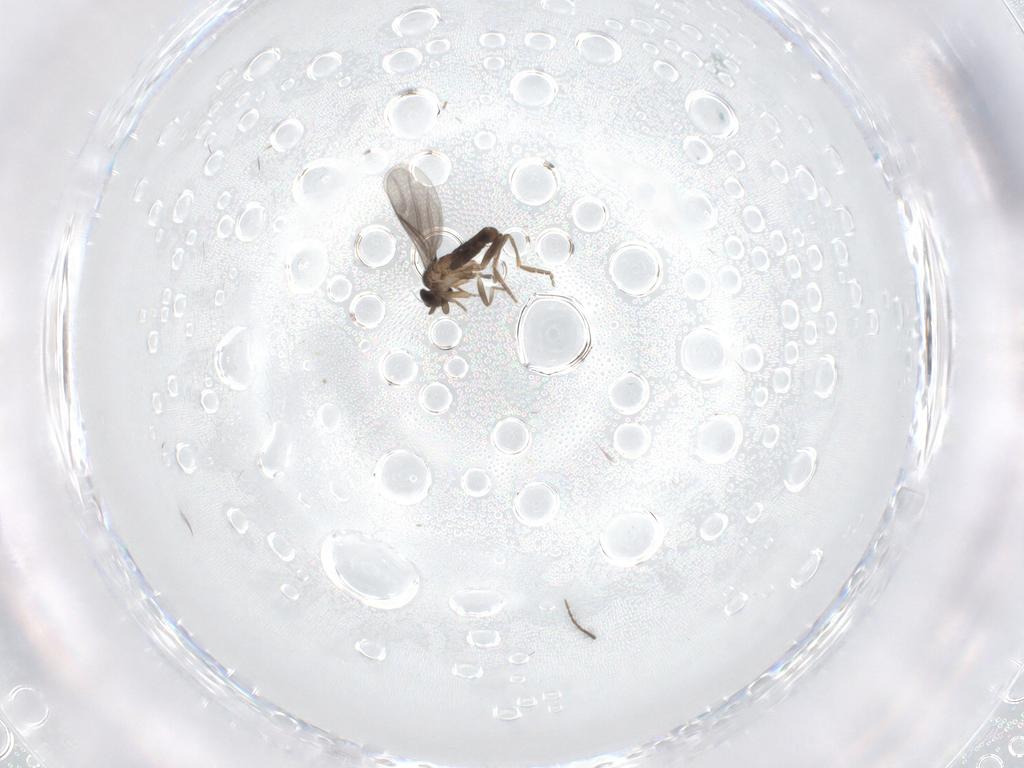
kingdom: Animalia
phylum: Arthropoda
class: Insecta
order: Diptera
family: Ceratopogonidae
